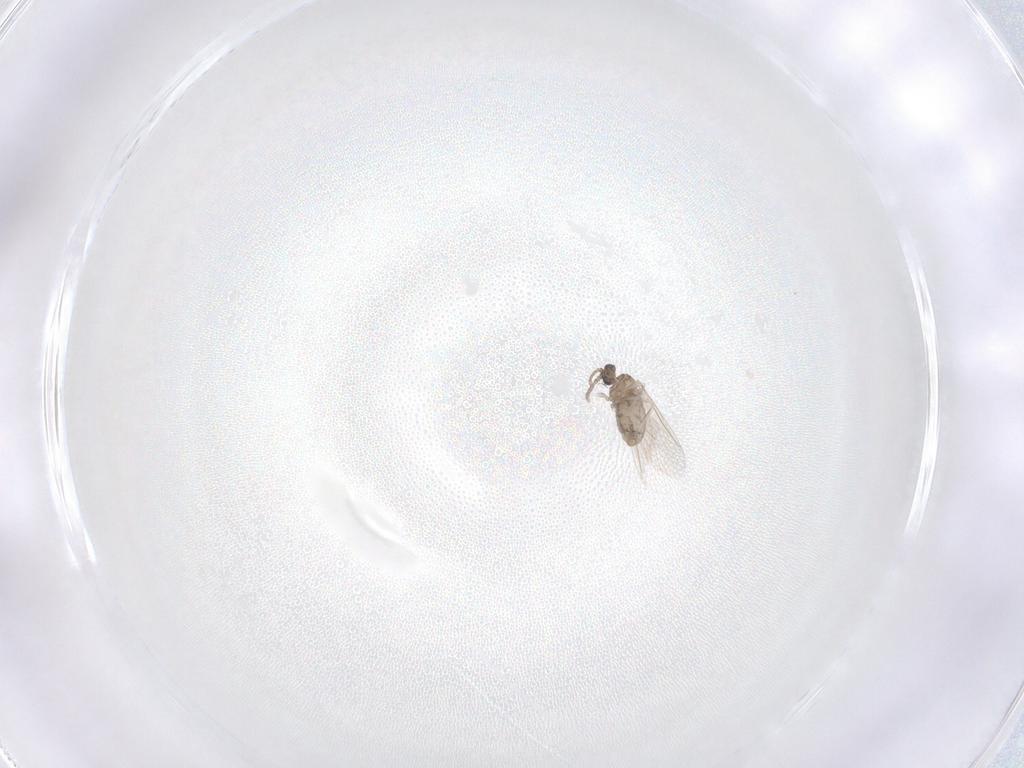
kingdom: Animalia
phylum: Arthropoda
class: Insecta
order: Diptera
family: Cecidomyiidae
